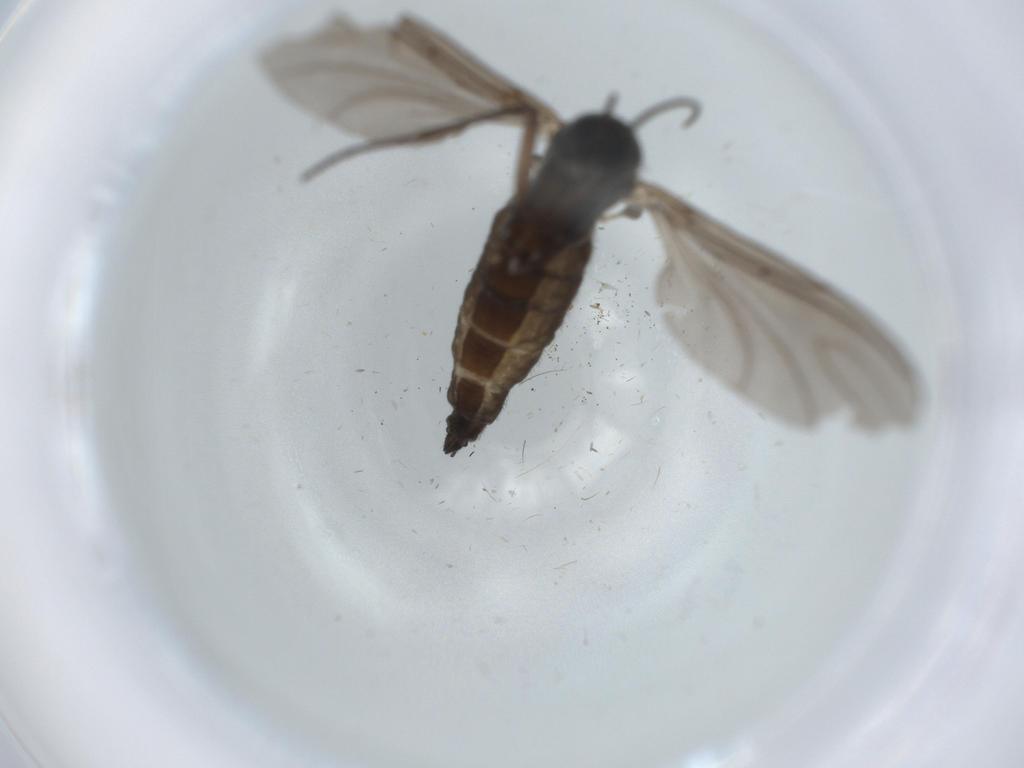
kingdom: Animalia
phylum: Arthropoda
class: Insecta
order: Diptera
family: Sciaridae
